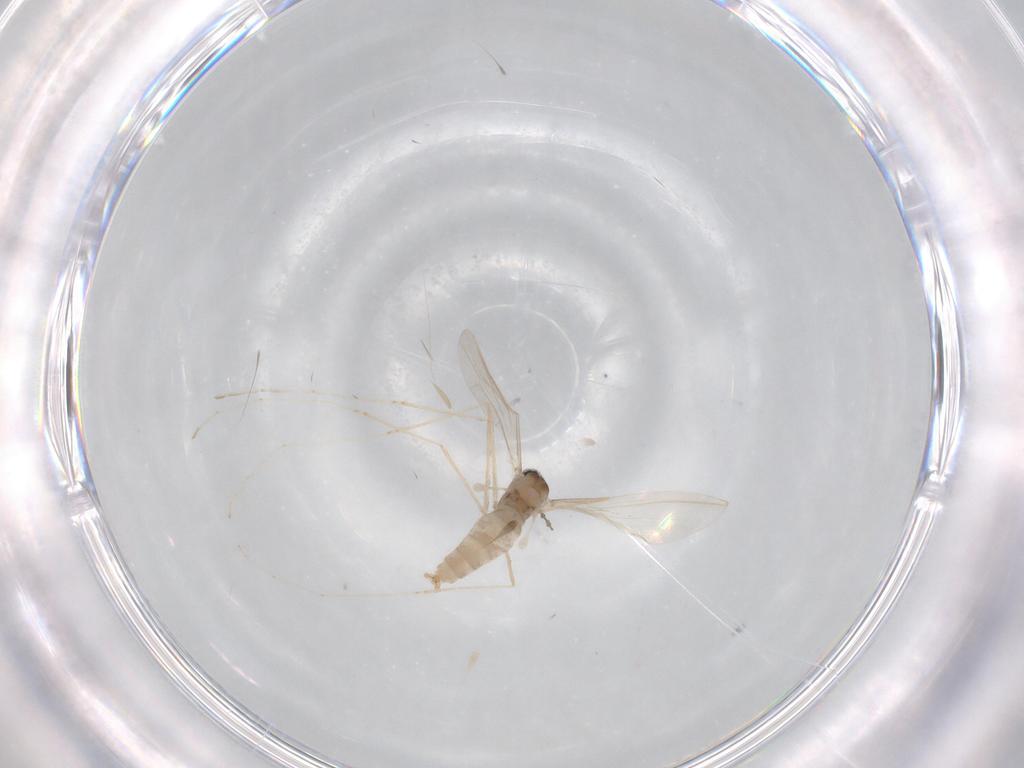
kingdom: Animalia
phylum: Arthropoda
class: Insecta
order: Diptera
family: Cecidomyiidae
